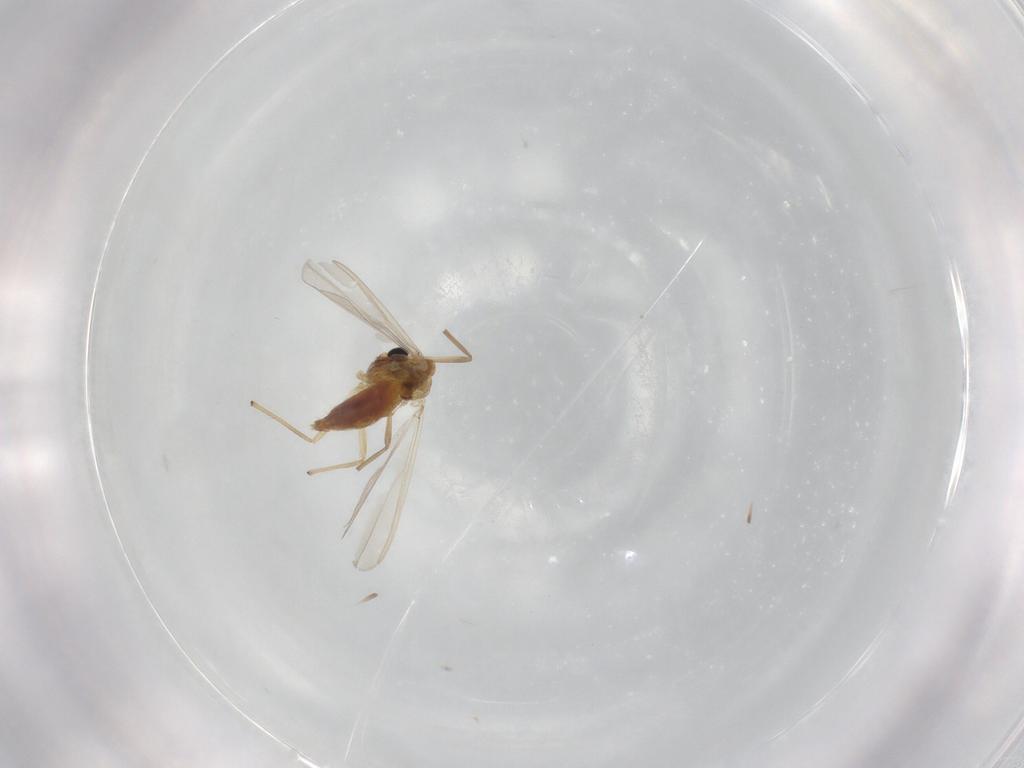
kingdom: Animalia
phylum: Arthropoda
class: Insecta
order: Diptera
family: Chironomidae
